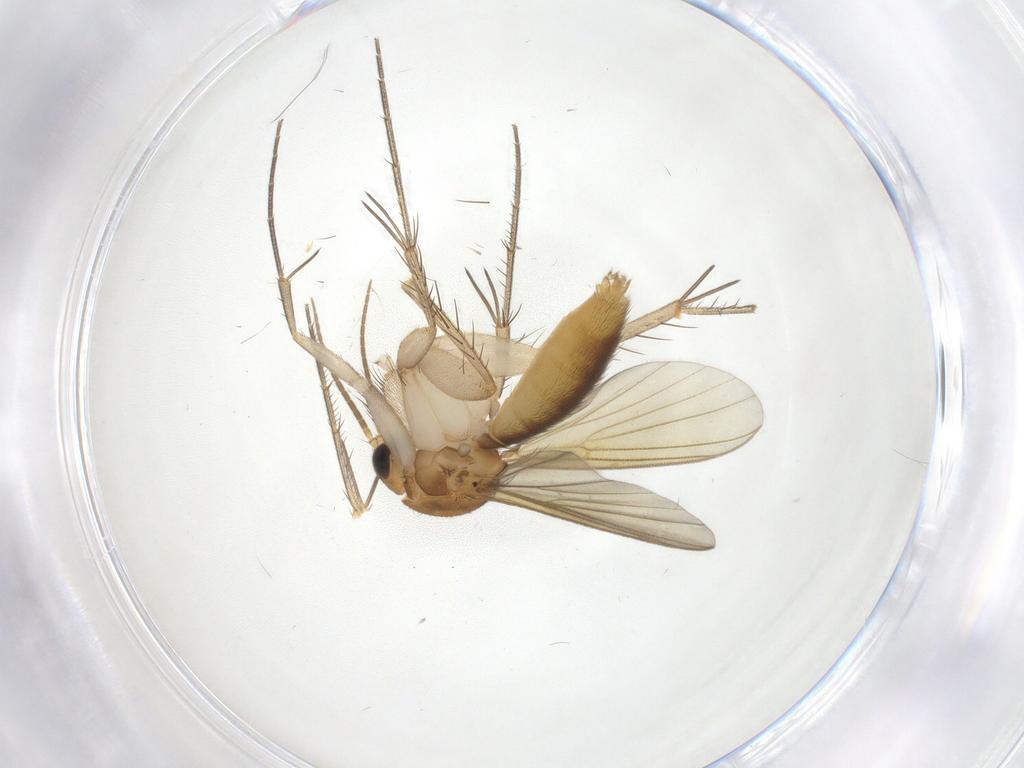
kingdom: Animalia
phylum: Arthropoda
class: Insecta
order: Diptera
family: Mycetophilidae
